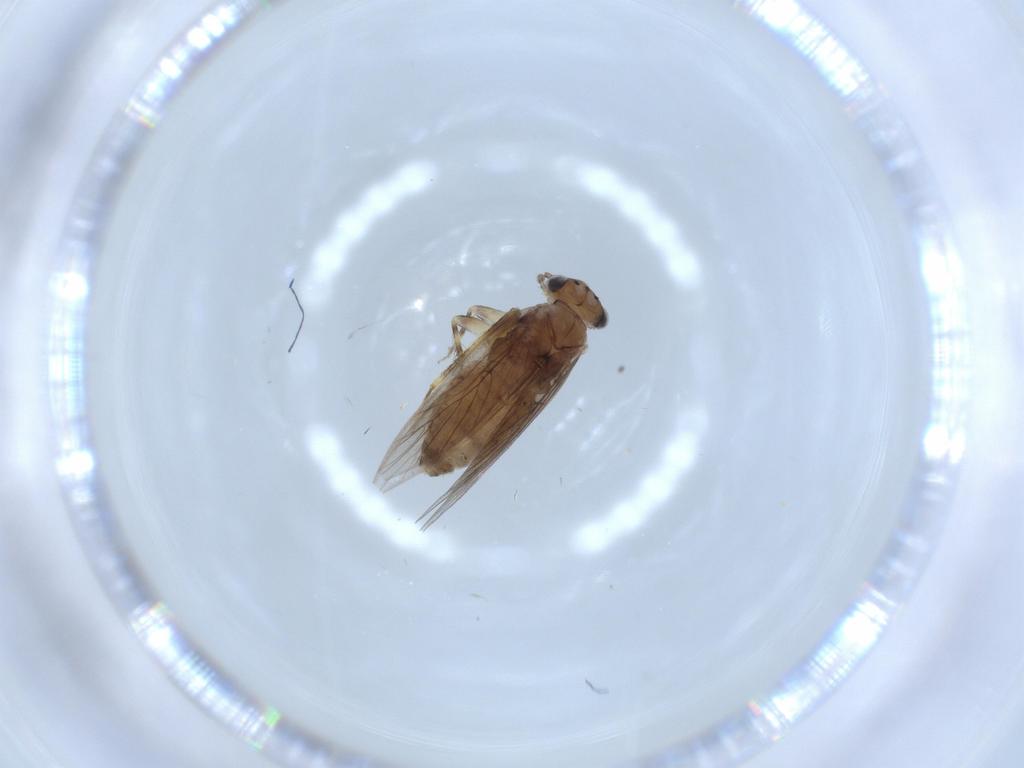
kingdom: Animalia
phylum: Arthropoda
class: Insecta
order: Psocodea
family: Lepidopsocidae
